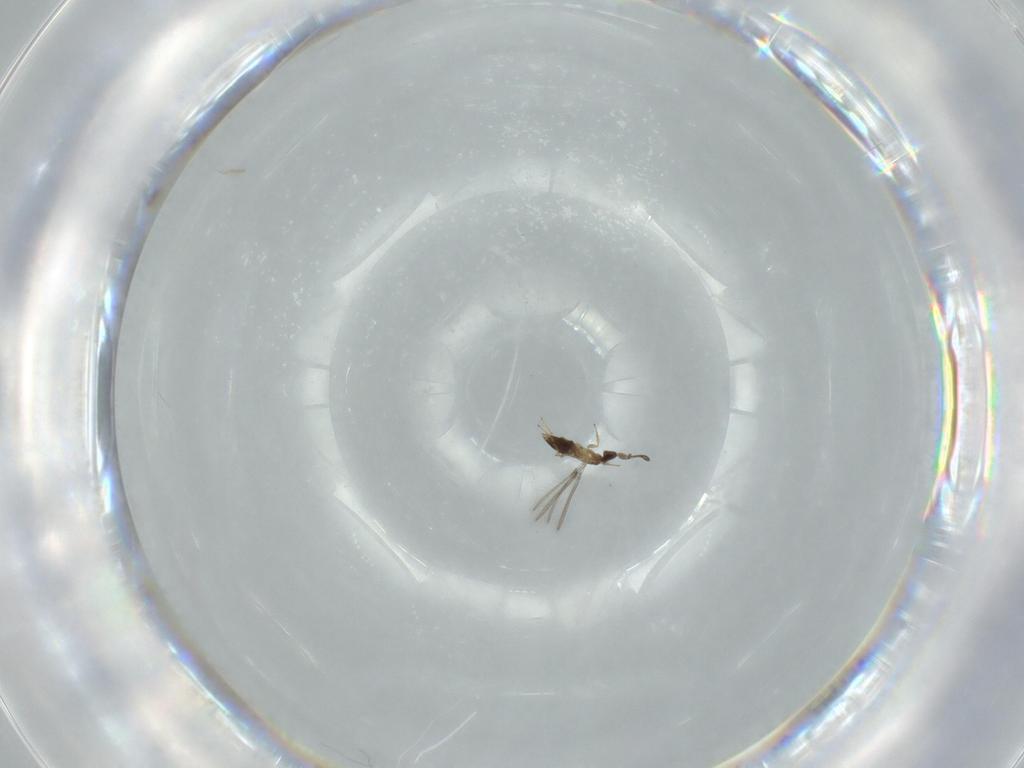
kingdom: Animalia
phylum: Arthropoda
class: Insecta
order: Hymenoptera
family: Mymaridae
